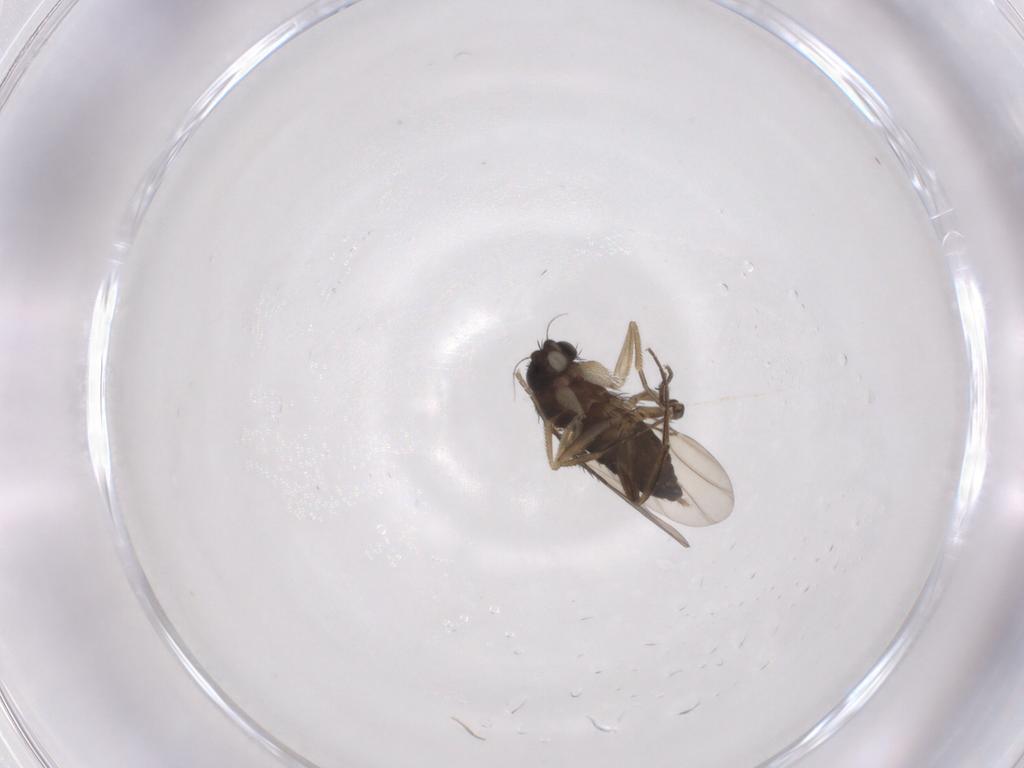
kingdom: Animalia
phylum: Arthropoda
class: Insecta
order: Diptera
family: Phoridae
